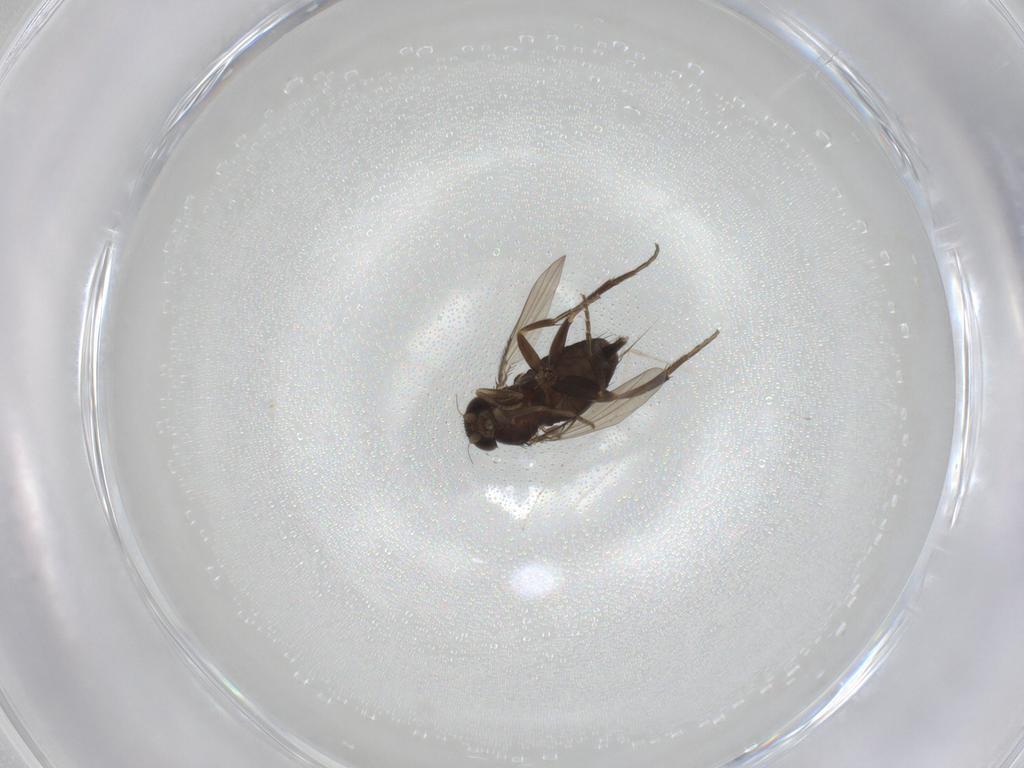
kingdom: Animalia
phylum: Arthropoda
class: Insecta
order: Diptera
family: Phoridae
